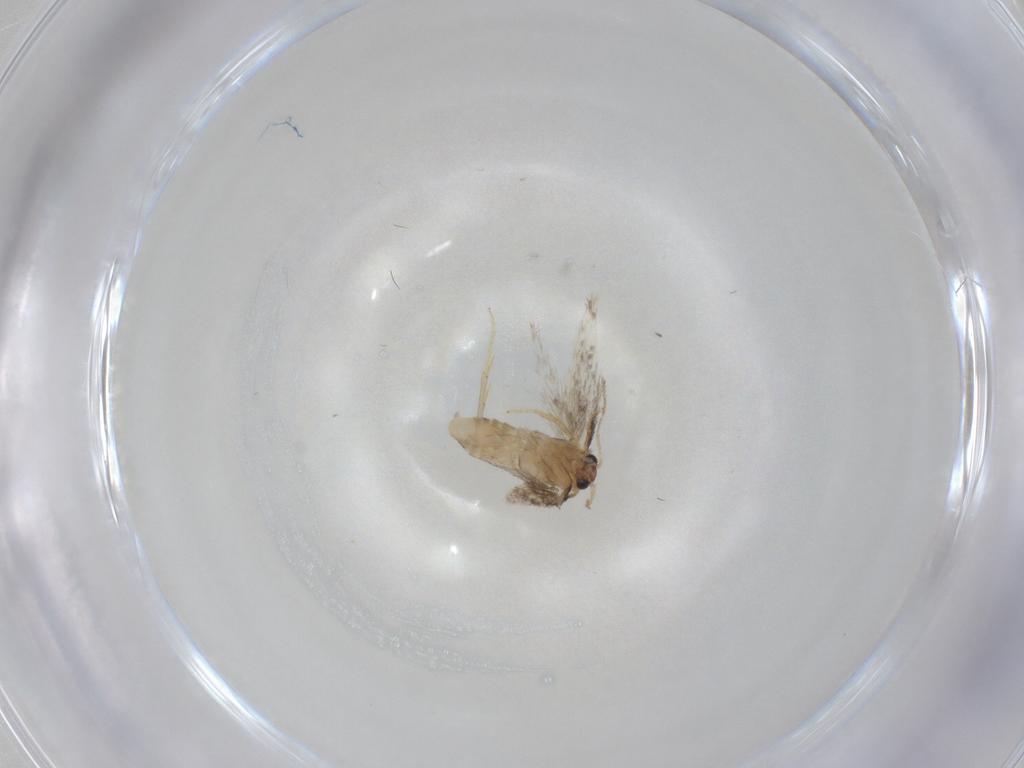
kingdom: Animalia
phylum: Arthropoda
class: Insecta
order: Lepidoptera
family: Nepticulidae
